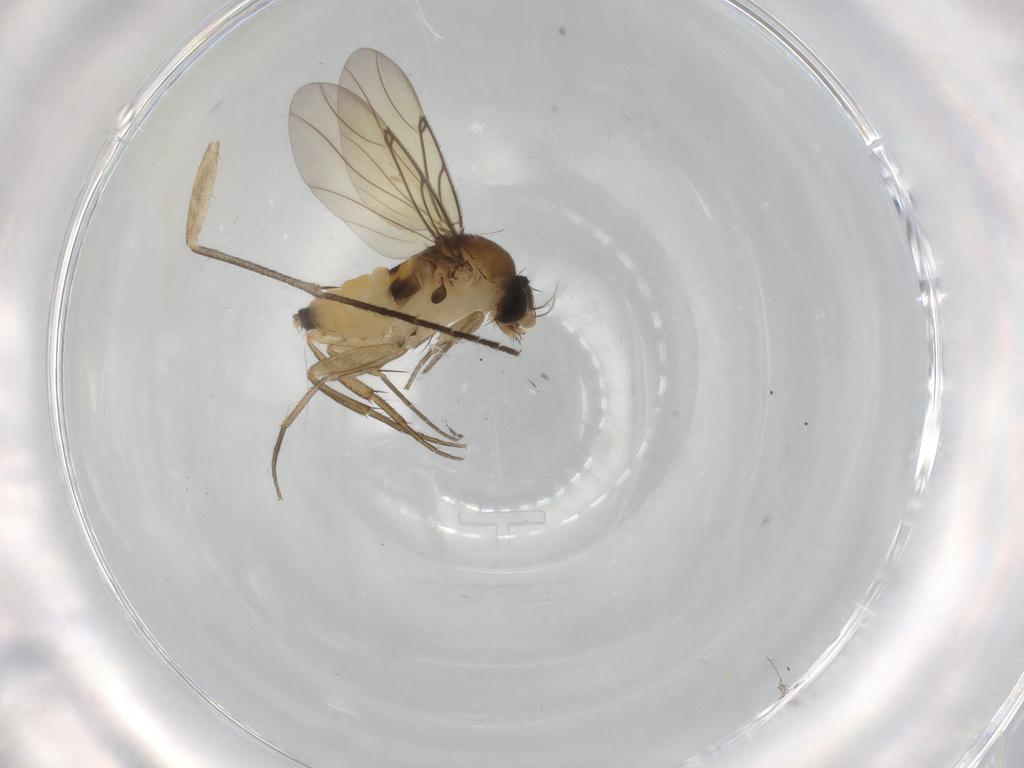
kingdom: Animalia
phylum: Arthropoda
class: Insecta
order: Diptera
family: Sciaridae
